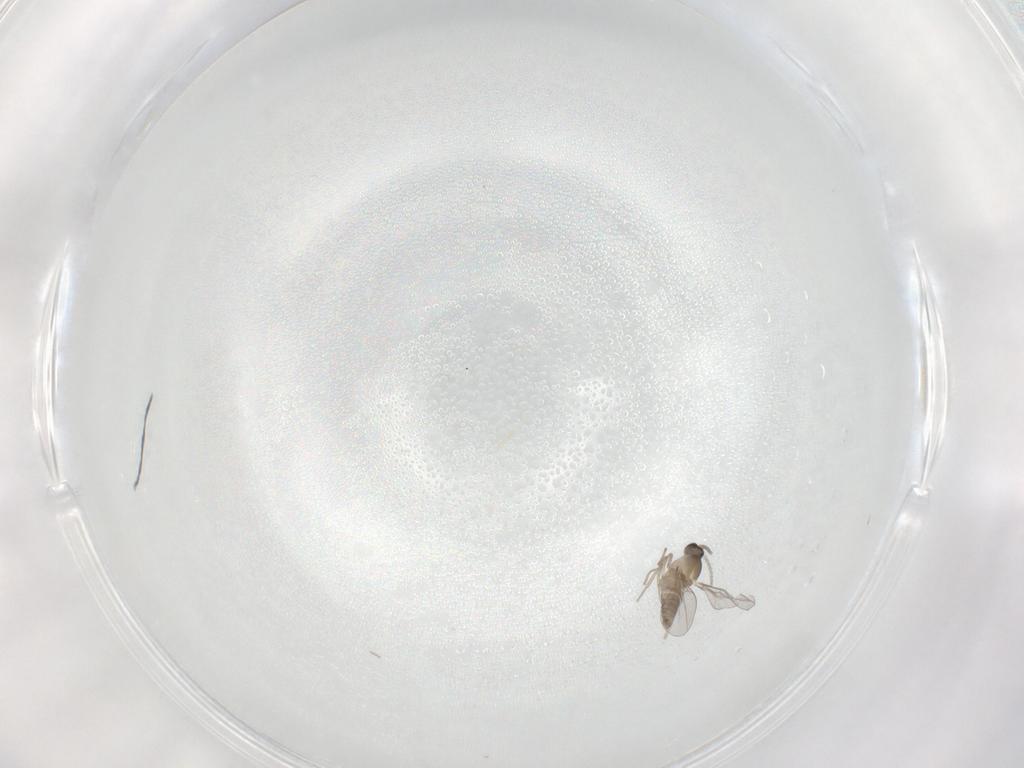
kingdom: Animalia
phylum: Arthropoda
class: Insecta
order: Diptera
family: Cecidomyiidae
